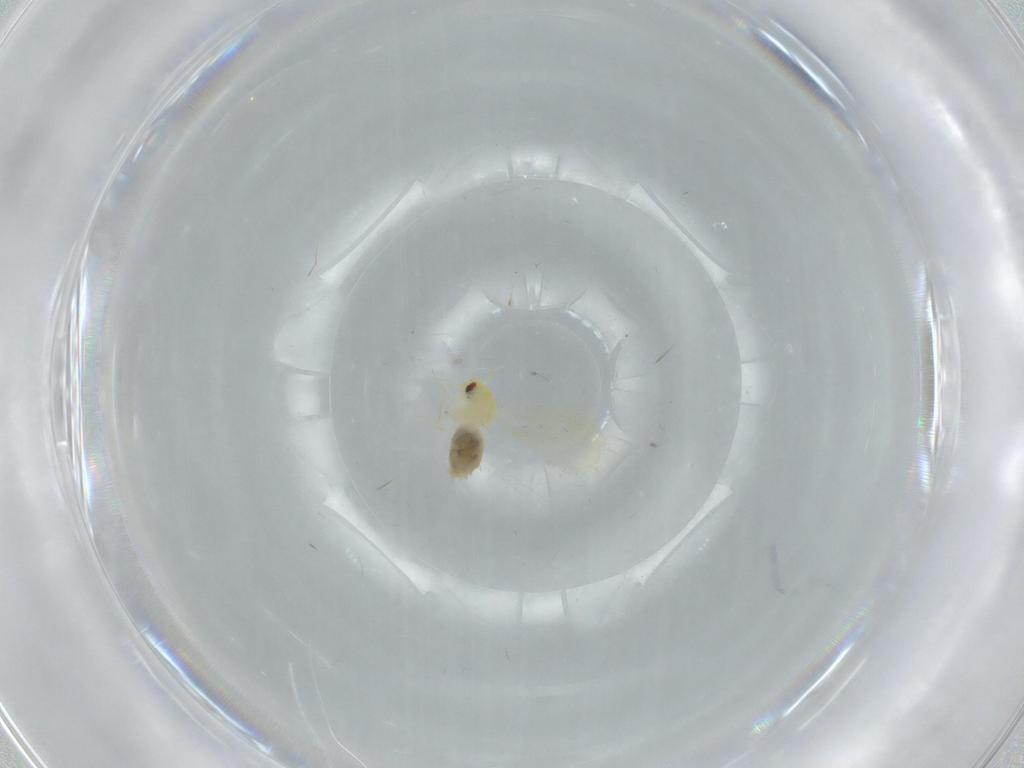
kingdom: Animalia
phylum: Arthropoda
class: Insecta
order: Hemiptera
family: Aleyrodidae
